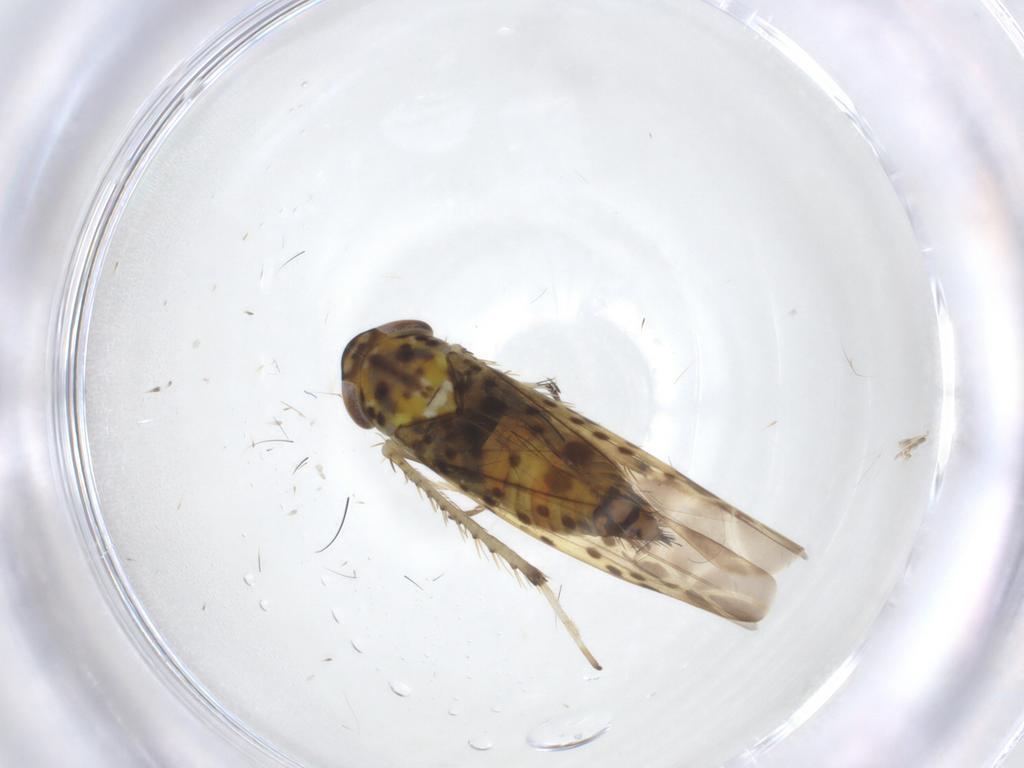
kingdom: Animalia
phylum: Arthropoda
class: Insecta
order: Hemiptera
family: Cicadellidae
